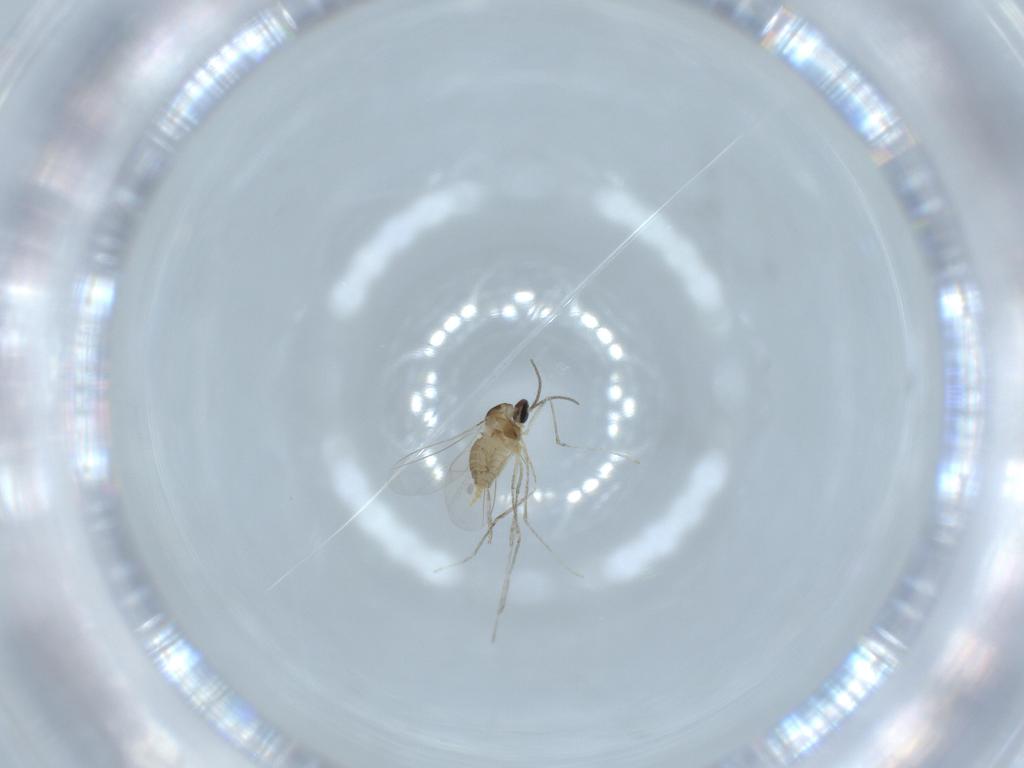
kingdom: Animalia
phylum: Arthropoda
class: Insecta
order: Diptera
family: Cecidomyiidae
